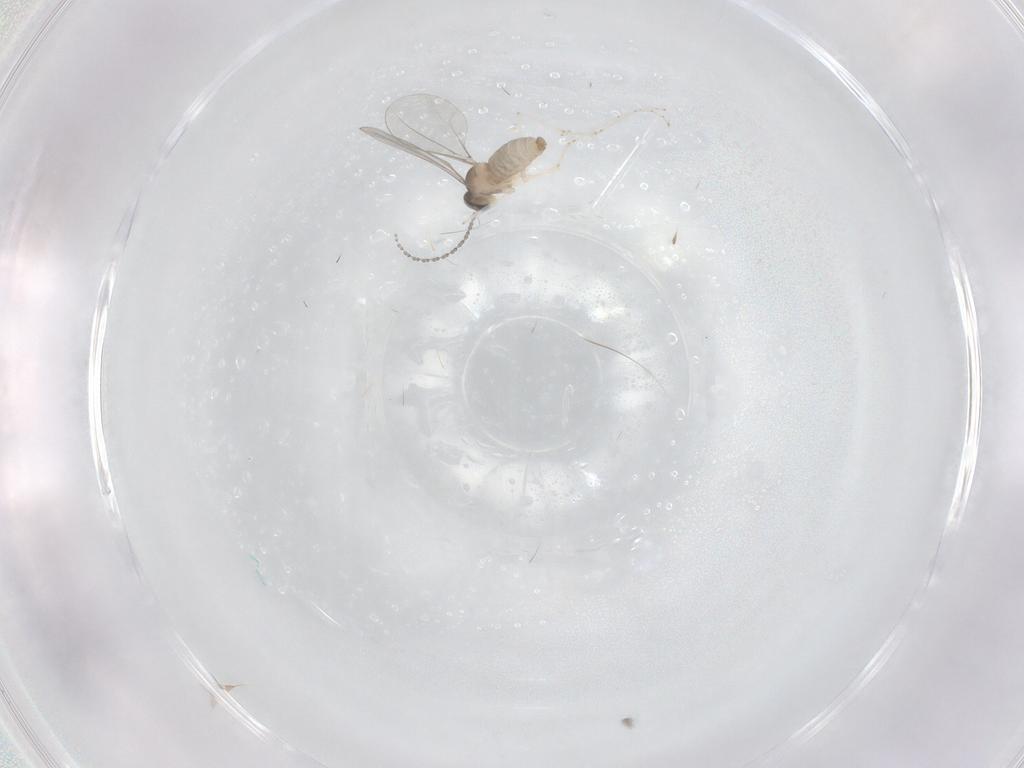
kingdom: Animalia
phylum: Arthropoda
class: Insecta
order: Diptera
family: Cecidomyiidae
